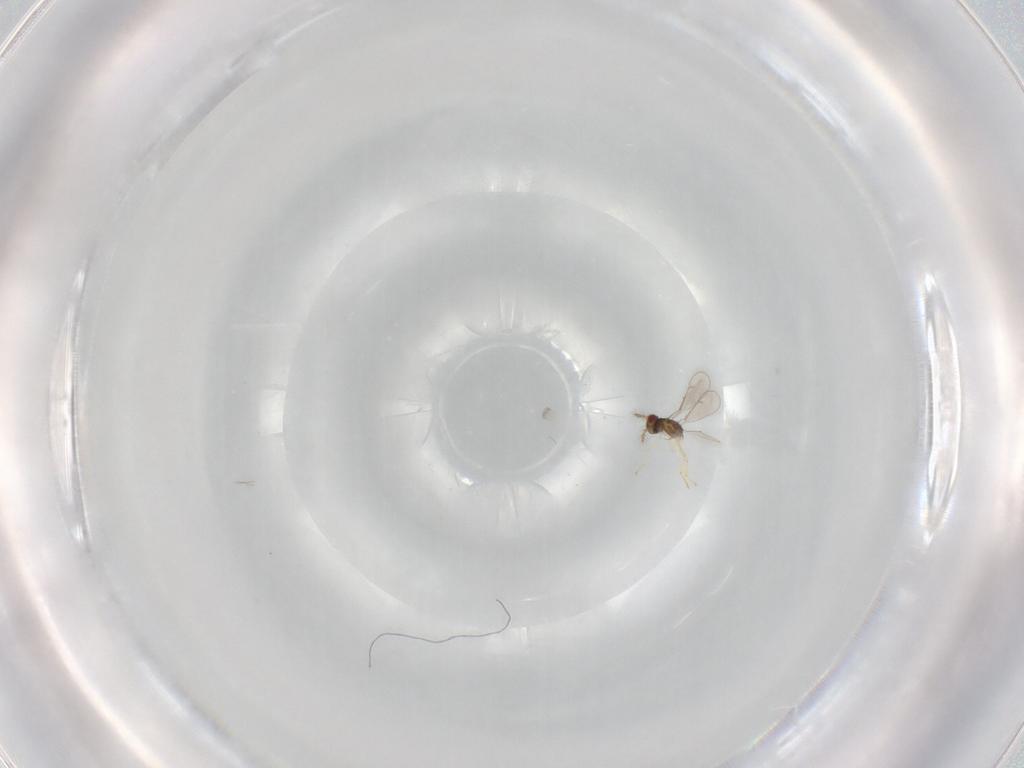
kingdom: Animalia
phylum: Arthropoda
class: Insecta
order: Hymenoptera
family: Eulophidae
